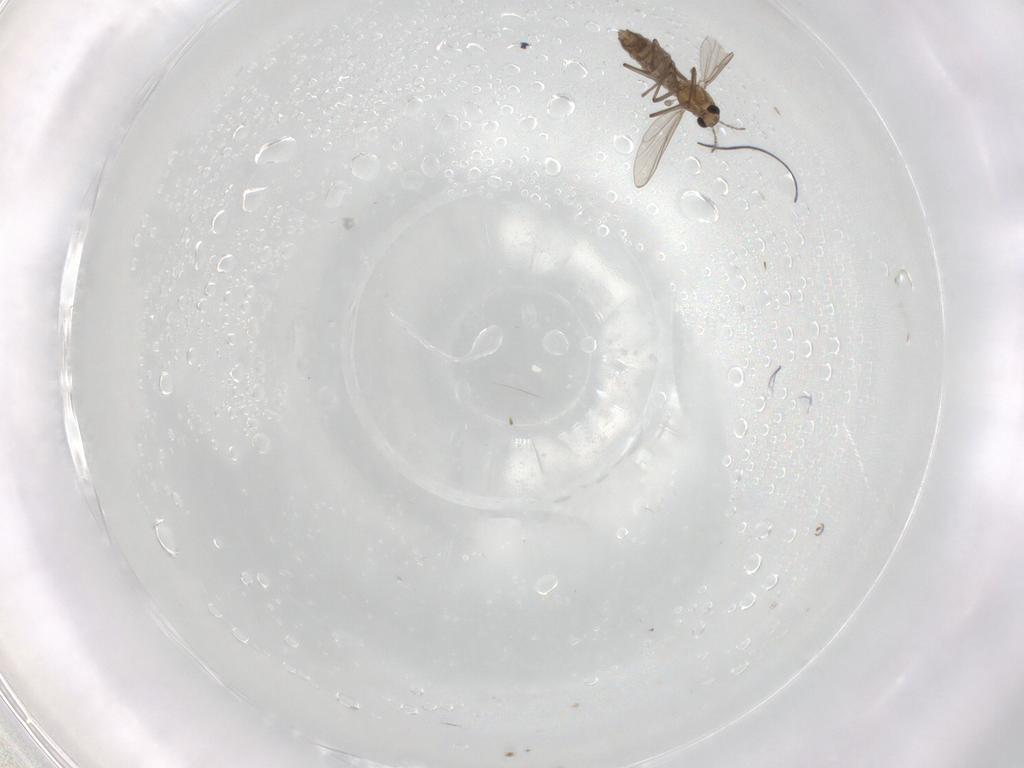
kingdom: Animalia
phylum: Arthropoda
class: Insecta
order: Diptera
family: Chironomidae
